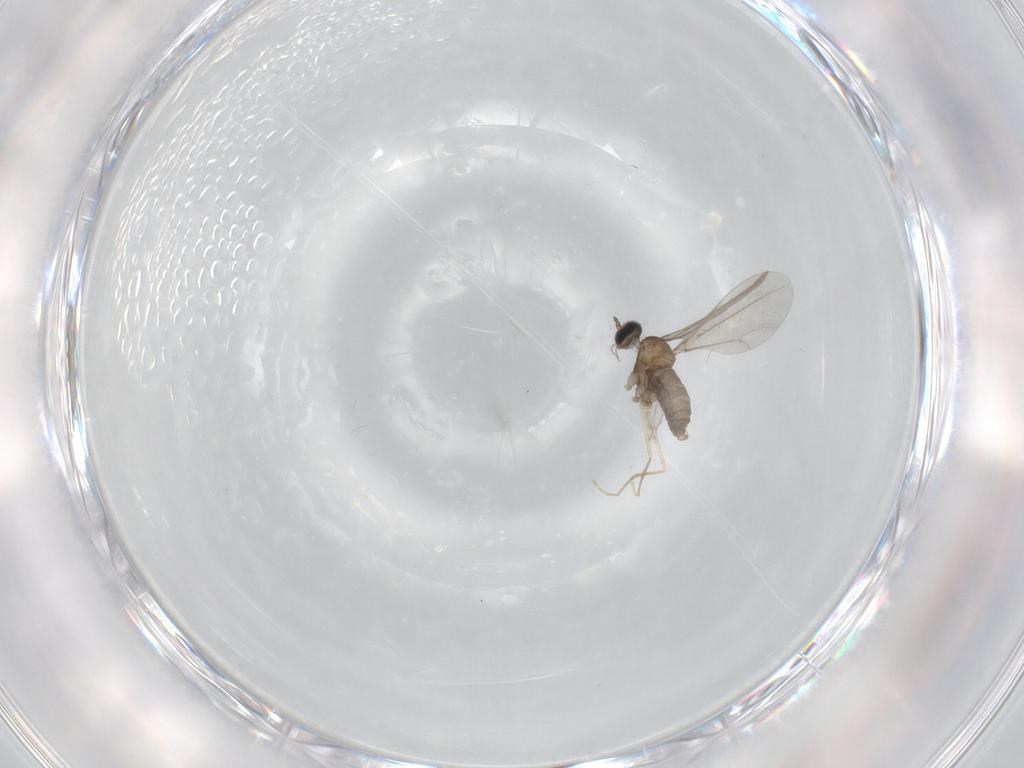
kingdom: Animalia
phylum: Arthropoda
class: Insecta
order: Diptera
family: Cecidomyiidae
